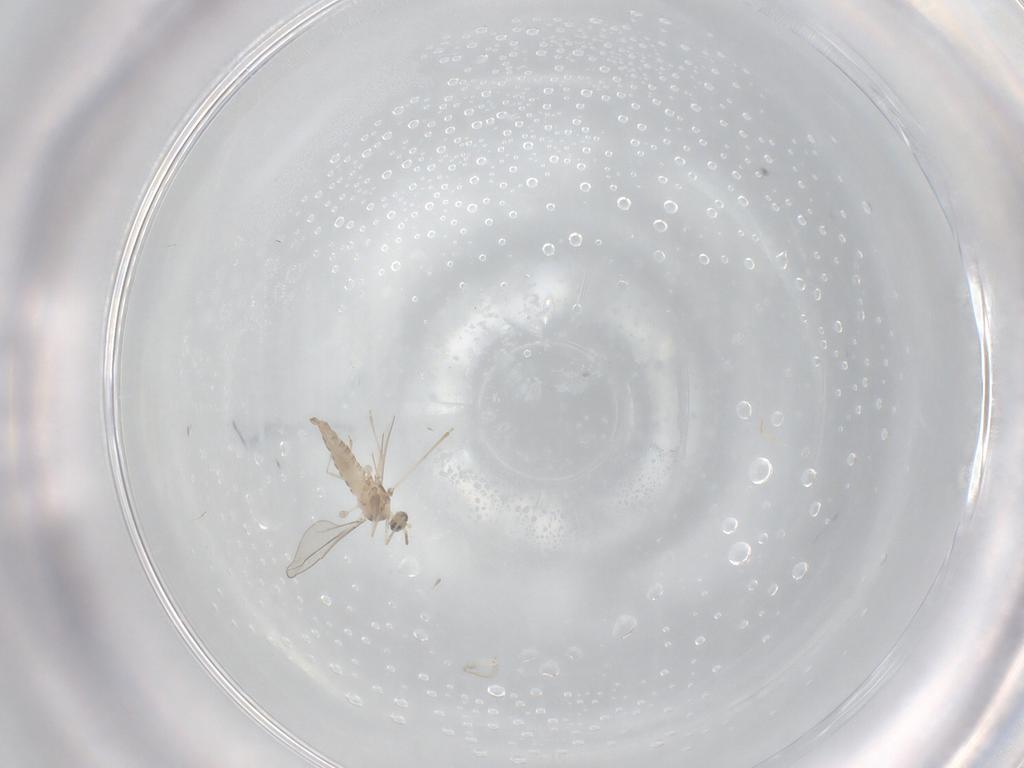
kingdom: Animalia
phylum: Arthropoda
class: Insecta
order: Diptera
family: Cecidomyiidae
